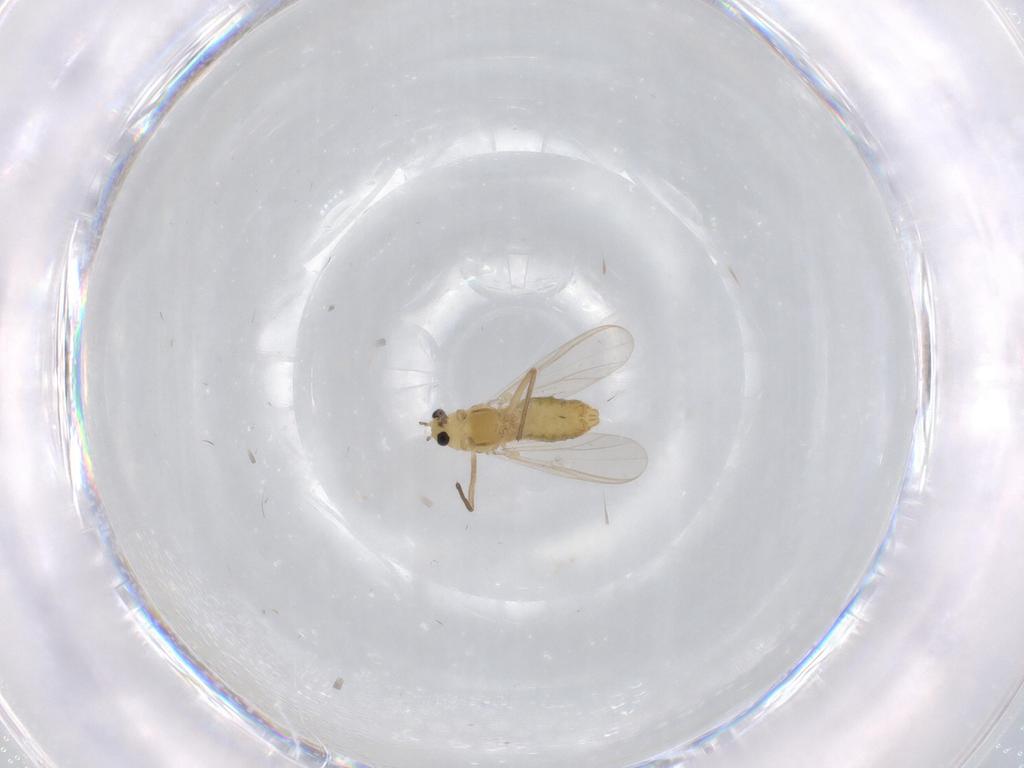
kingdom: Animalia
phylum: Arthropoda
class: Insecta
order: Diptera
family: Chironomidae
